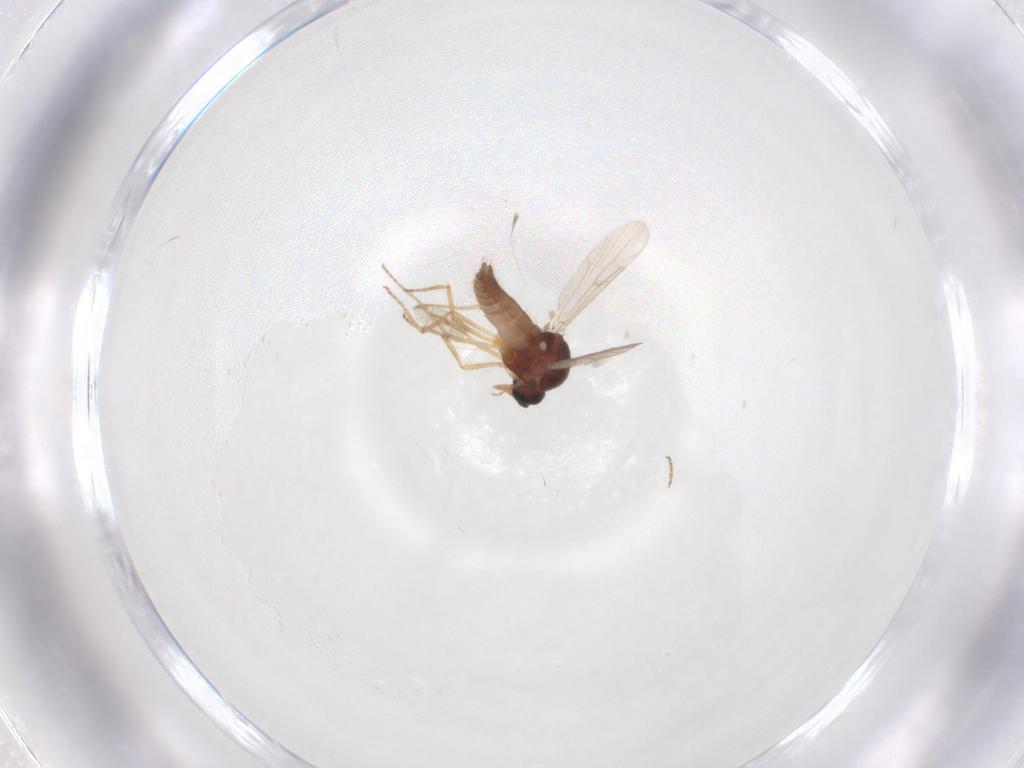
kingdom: Animalia
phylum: Arthropoda
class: Insecta
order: Diptera
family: Ceratopogonidae
